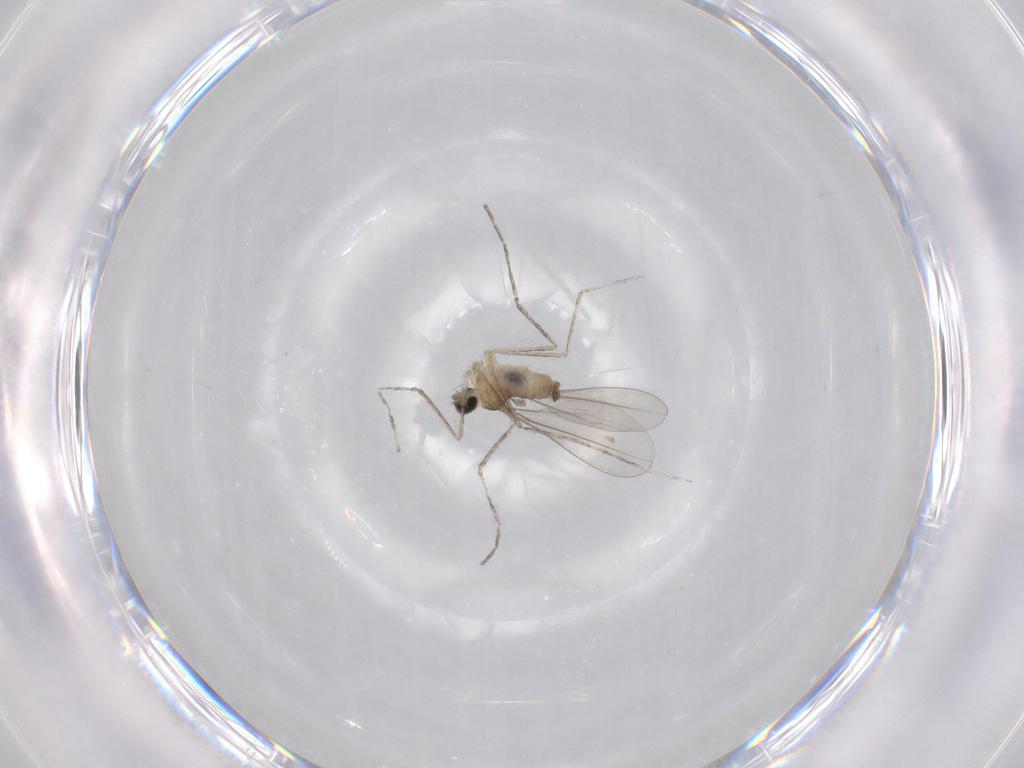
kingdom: Animalia
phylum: Arthropoda
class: Insecta
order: Diptera
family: Cecidomyiidae
